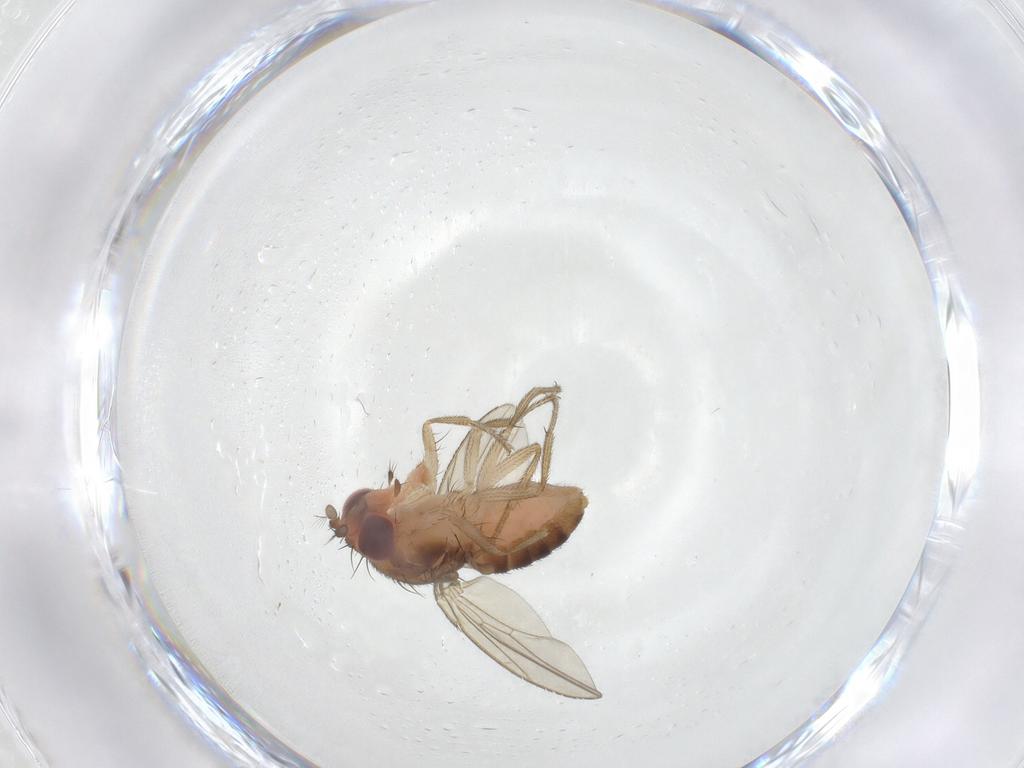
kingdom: Animalia
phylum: Arthropoda
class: Insecta
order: Diptera
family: Drosophilidae
